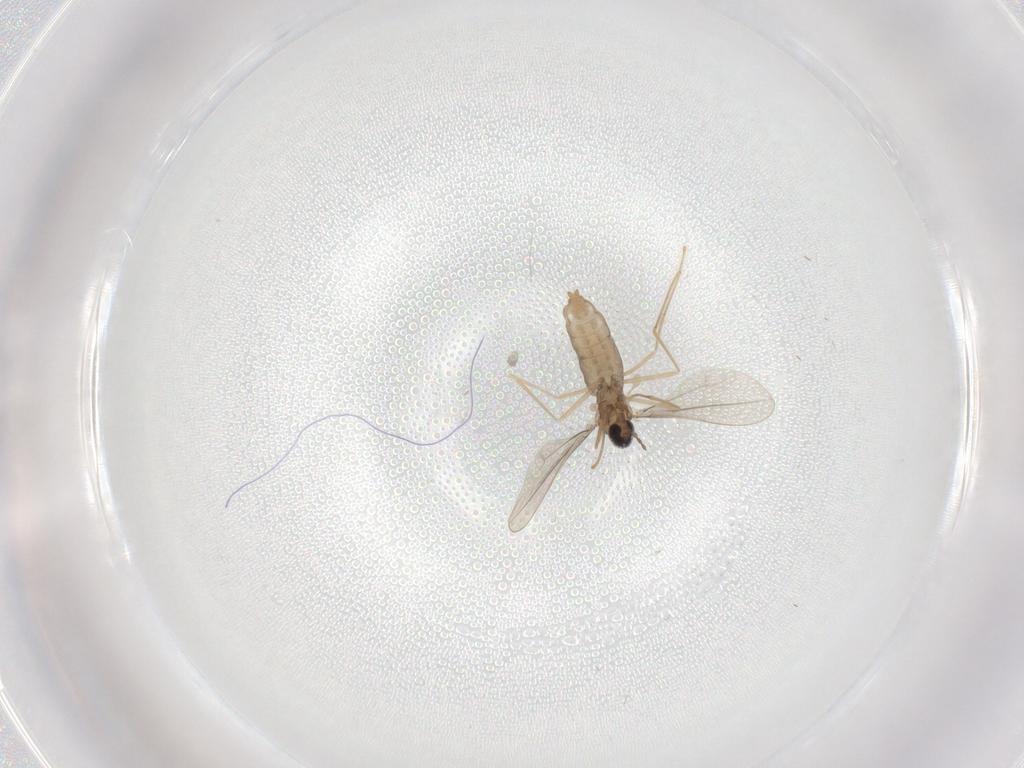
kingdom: Animalia
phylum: Arthropoda
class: Insecta
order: Diptera
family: Cecidomyiidae
